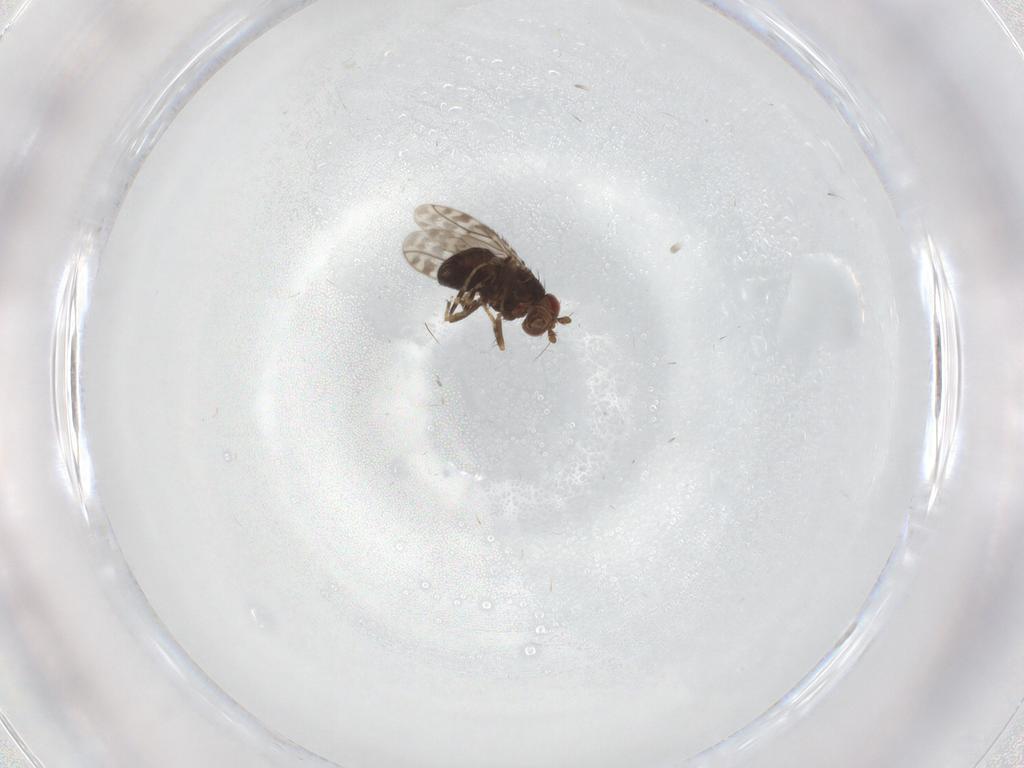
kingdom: Animalia
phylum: Arthropoda
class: Insecta
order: Diptera
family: Sphaeroceridae
